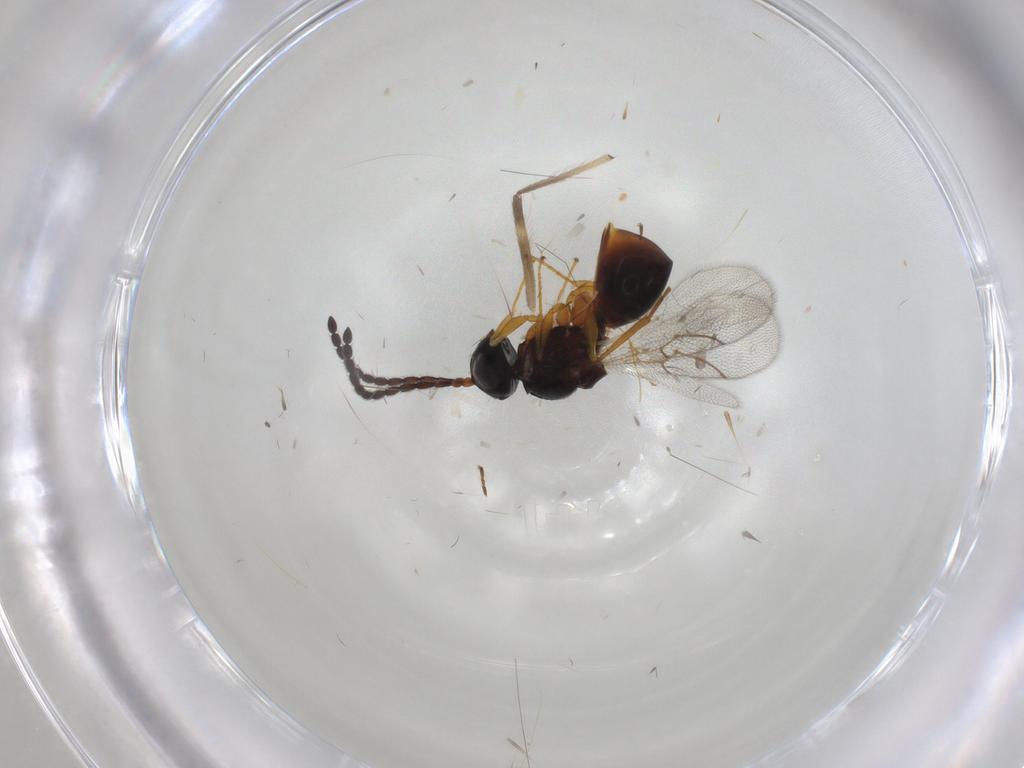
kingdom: Animalia
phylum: Arthropoda
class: Insecta
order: Hymenoptera
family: Figitidae
